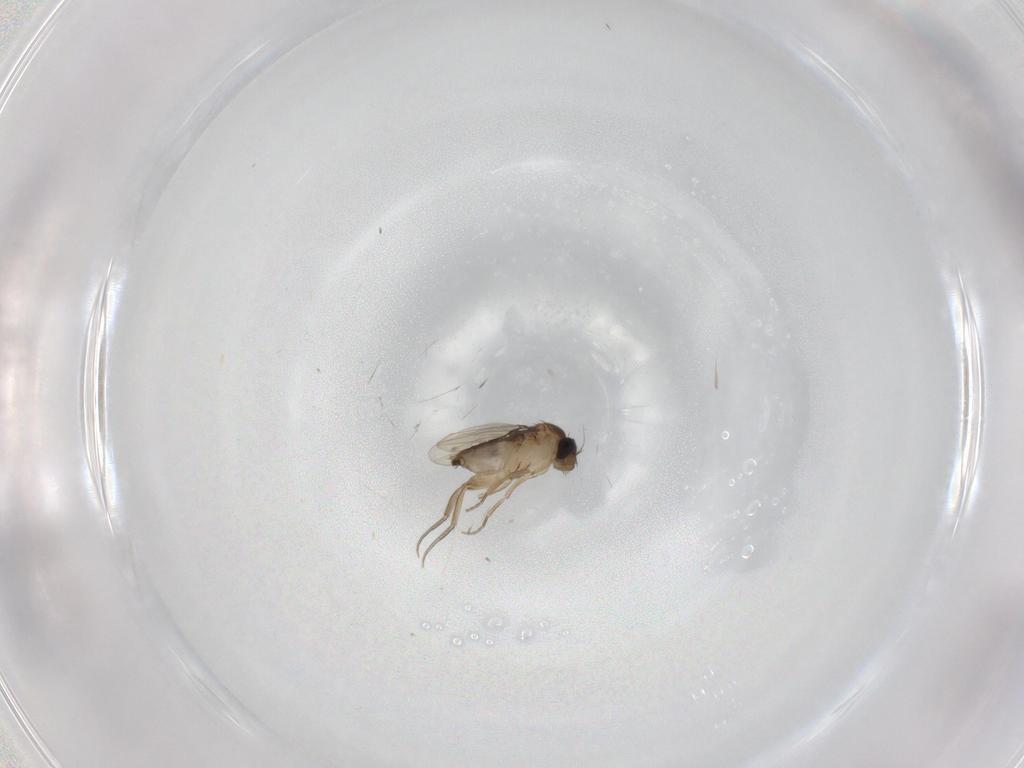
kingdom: Animalia
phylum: Arthropoda
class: Insecta
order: Diptera
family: Phoridae
